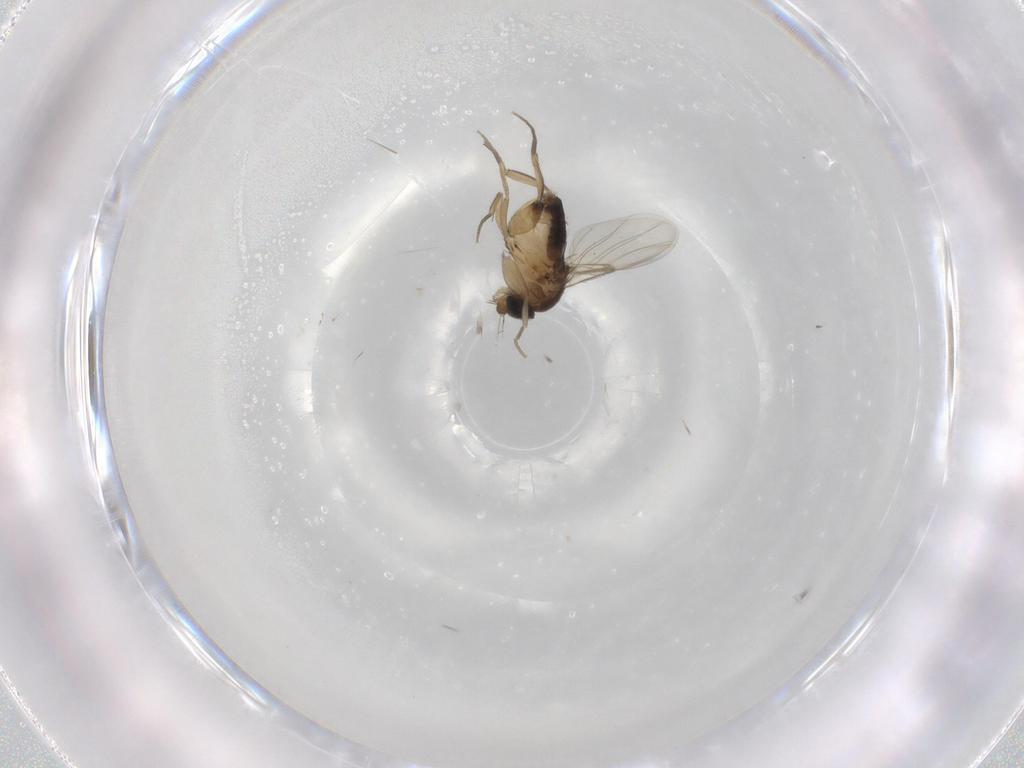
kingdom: Animalia
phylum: Arthropoda
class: Insecta
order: Diptera
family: Phoridae
